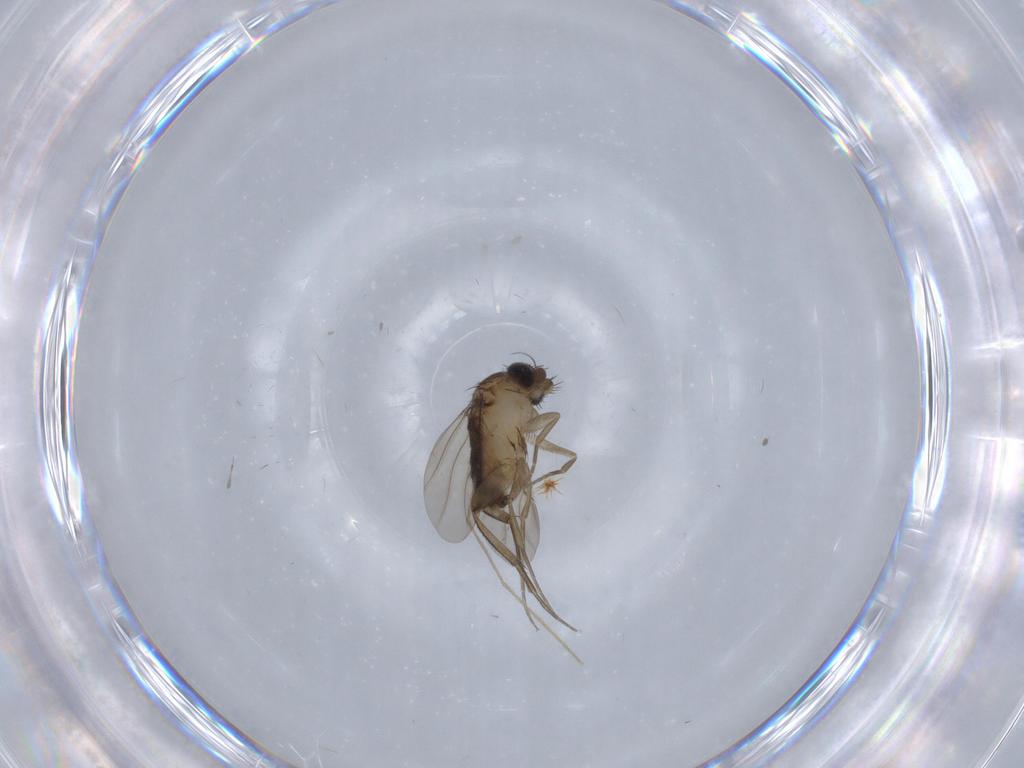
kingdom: Animalia
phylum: Arthropoda
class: Insecta
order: Diptera
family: Phoridae
